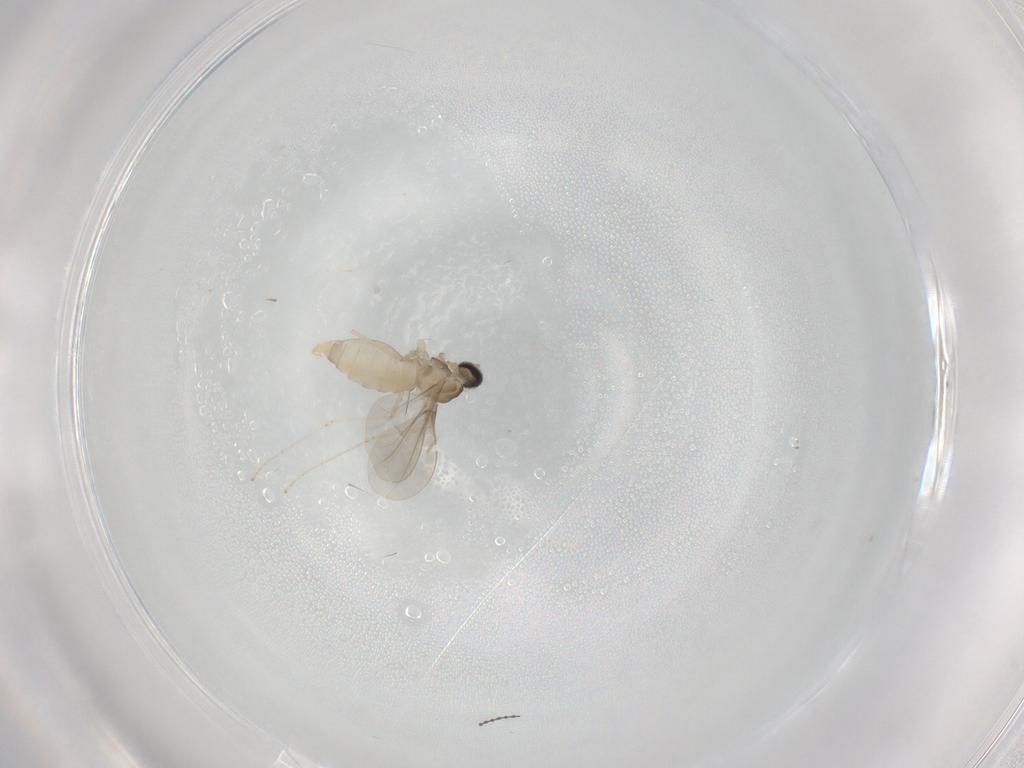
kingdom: Animalia
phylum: Arthropoda
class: Insecta
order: Diptera
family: Cecidomyiidae
